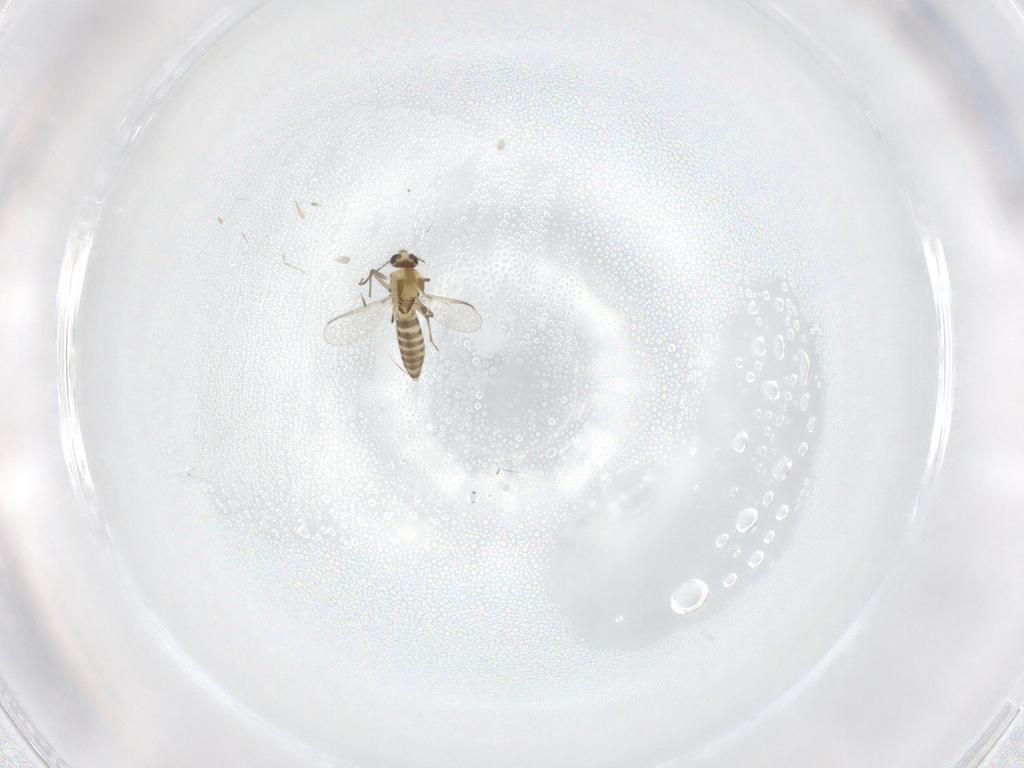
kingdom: Animalia
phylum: Arthropoda
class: Insecta
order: Diptera
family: Chironomidae
